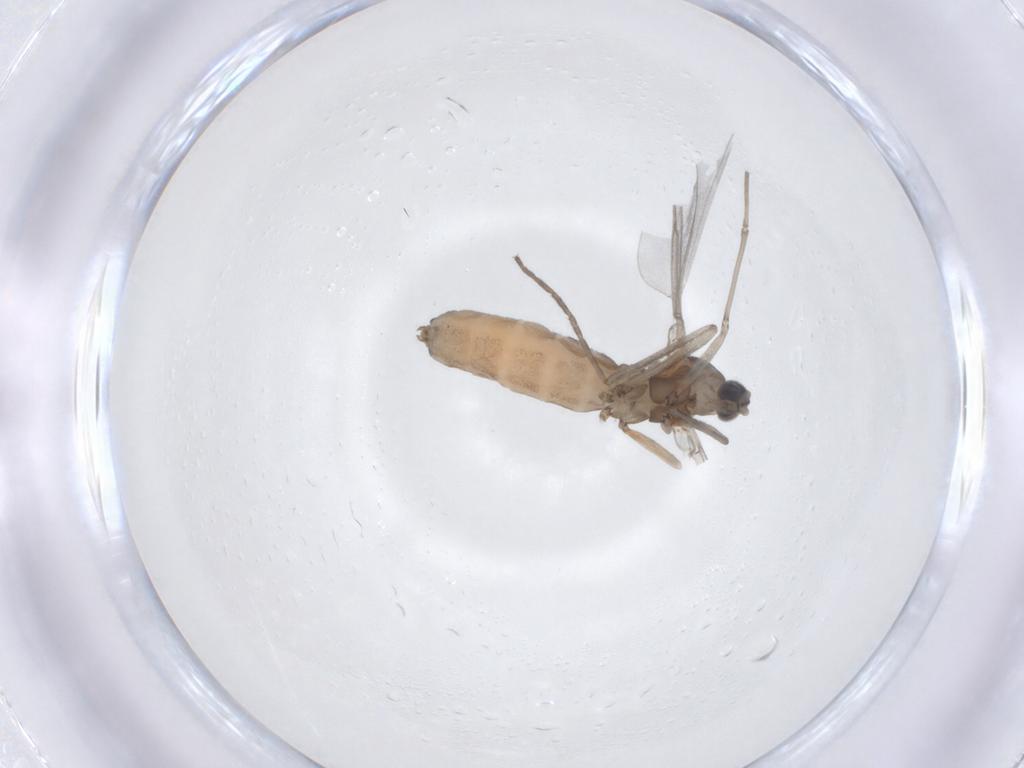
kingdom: Animalia
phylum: Arthropoda
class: Insecta
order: Diptera
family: Cecidomyiidae
